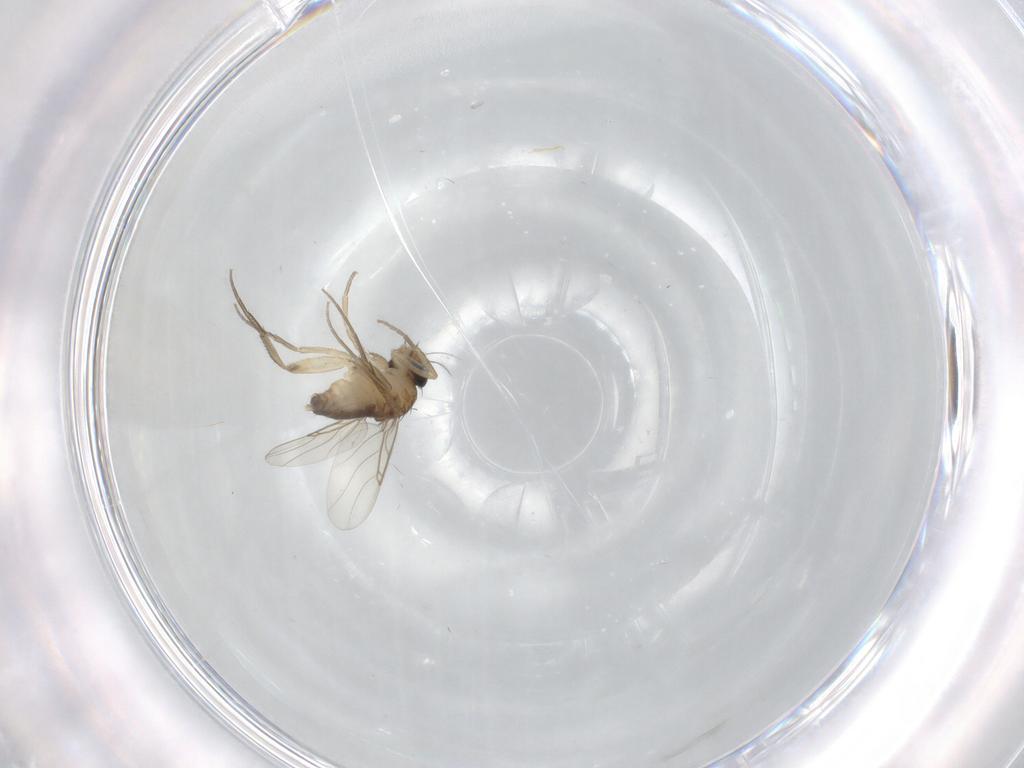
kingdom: Animalia
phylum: Arthropoda
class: Insecta
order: Diptera
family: Phoridae
